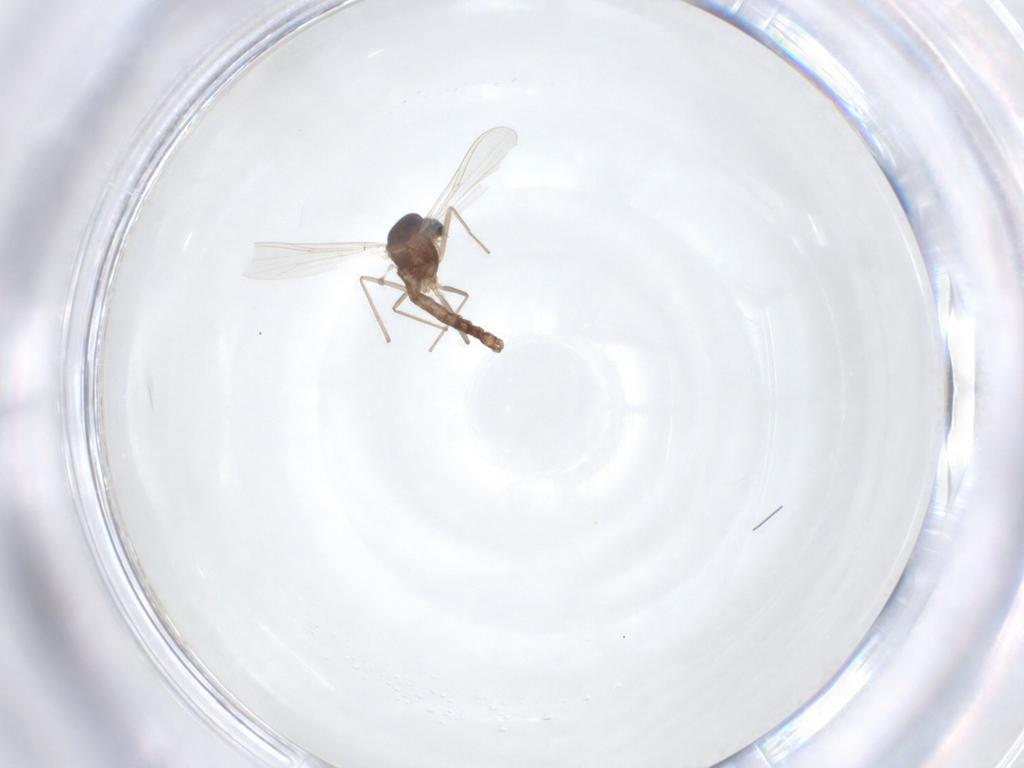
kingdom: Animalia
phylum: Arthropoda
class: Insecta
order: Diptera
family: Chironomidae
